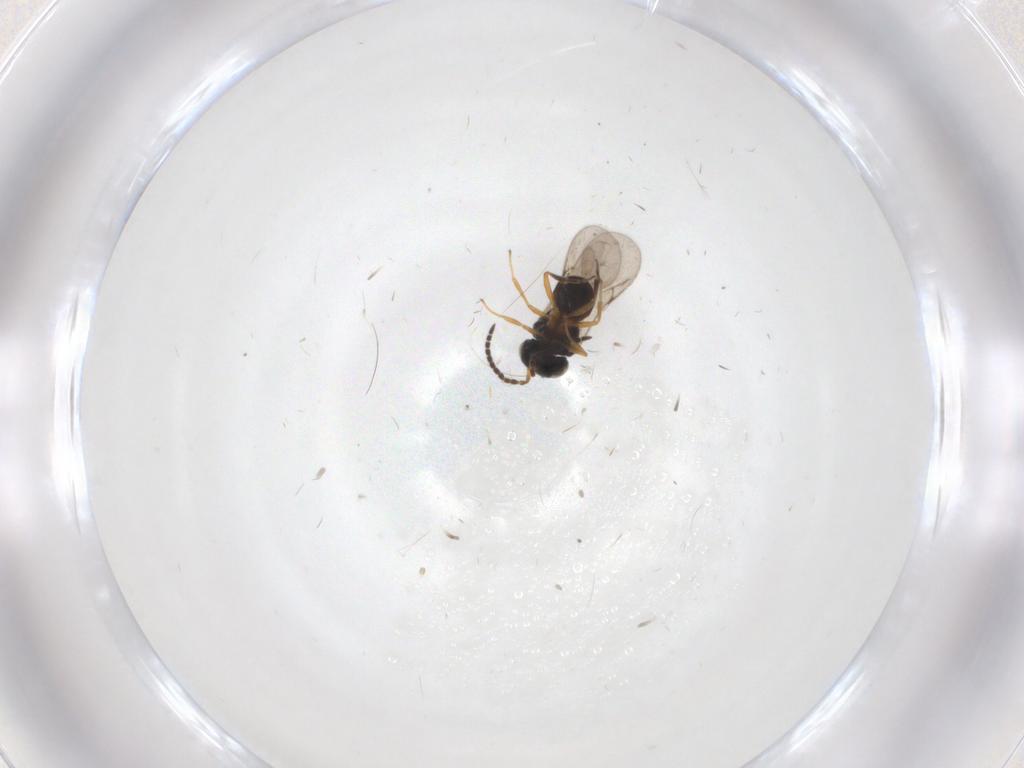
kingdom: Animalia
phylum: Arthropoda
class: Insecta
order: Hymenoptera
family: Scelionidae
